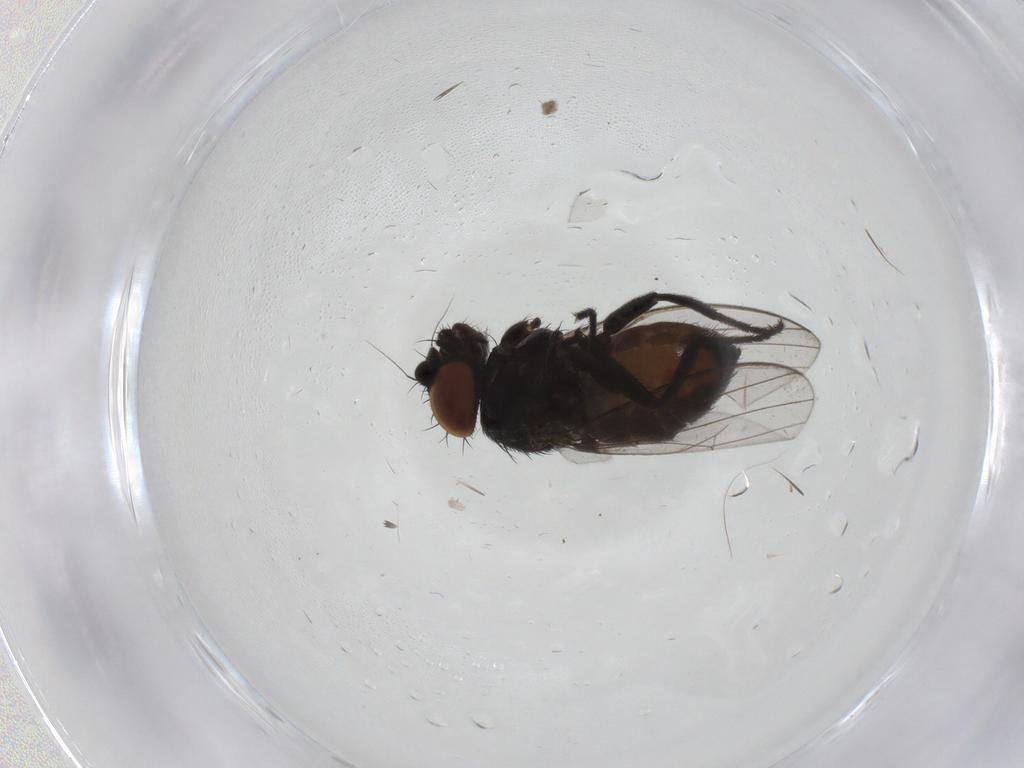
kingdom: Animalia
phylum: Arthropoda
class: Insecta
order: Diptera
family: Milichiidae
